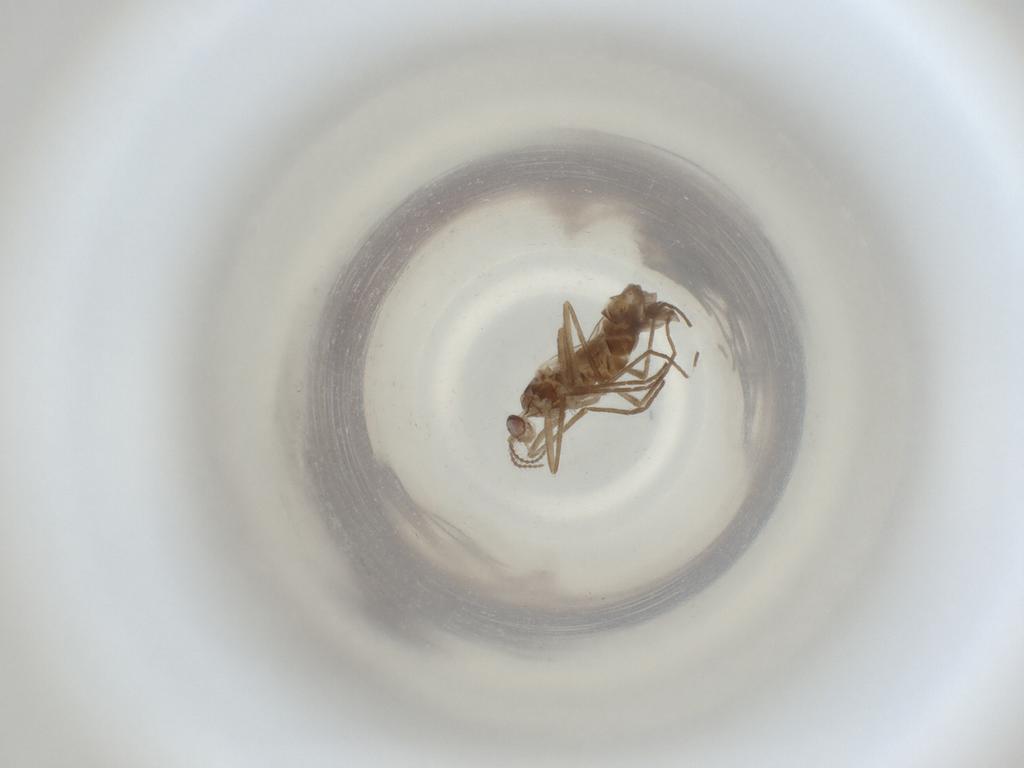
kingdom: Animalia
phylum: Arthropoda
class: Insecta
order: Diptera
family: Cecidomyiidae
